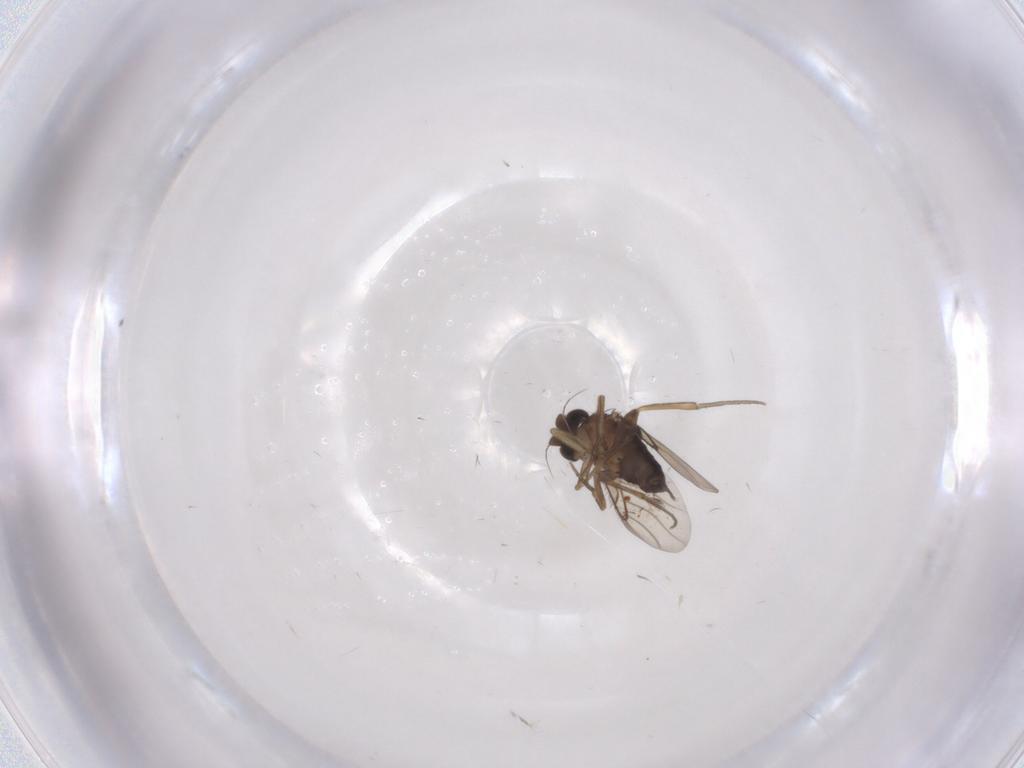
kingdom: Animalia
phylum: Arthropoda
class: Insecta
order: Diptera
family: Phoridae
